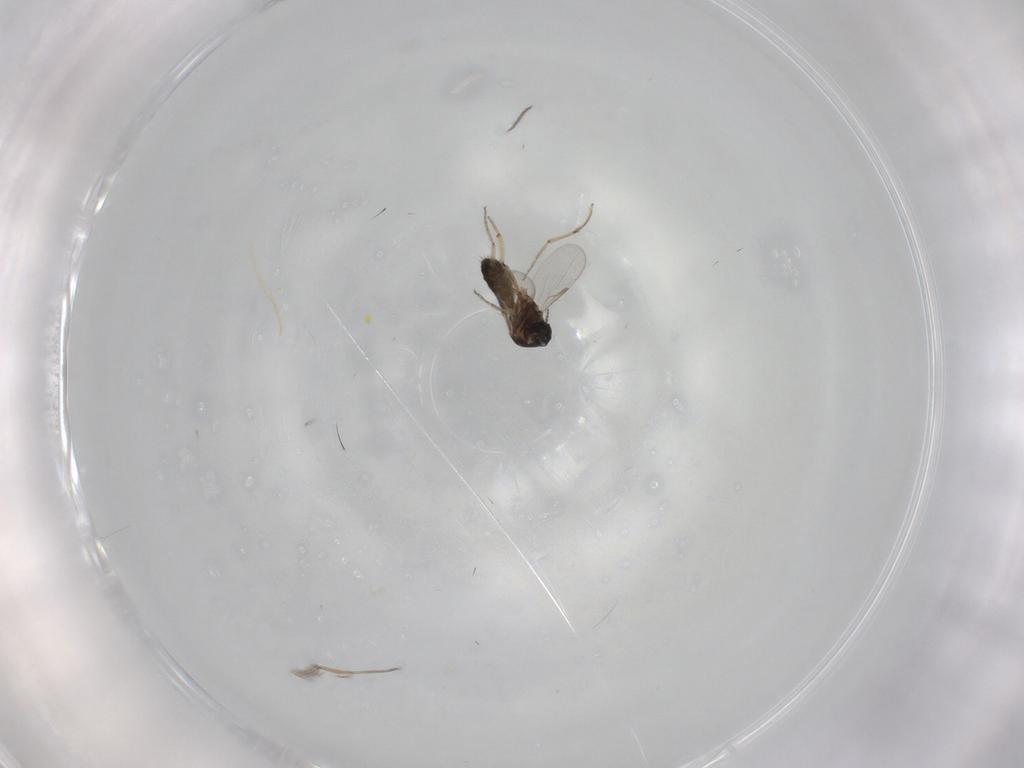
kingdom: Animalia
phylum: Arthropoda
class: Insecta
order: Diptera
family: Ceratopogonidae
